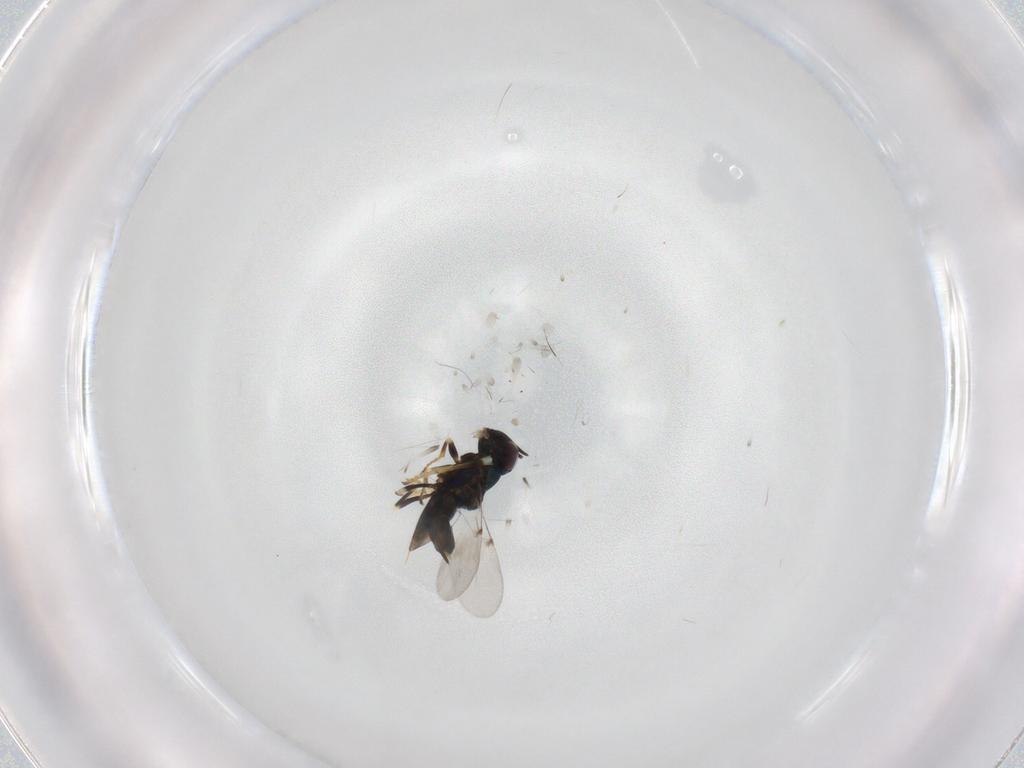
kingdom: Animalia
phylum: Arthropoda
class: Insecta
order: Hymenoptera
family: Encyrtidae
